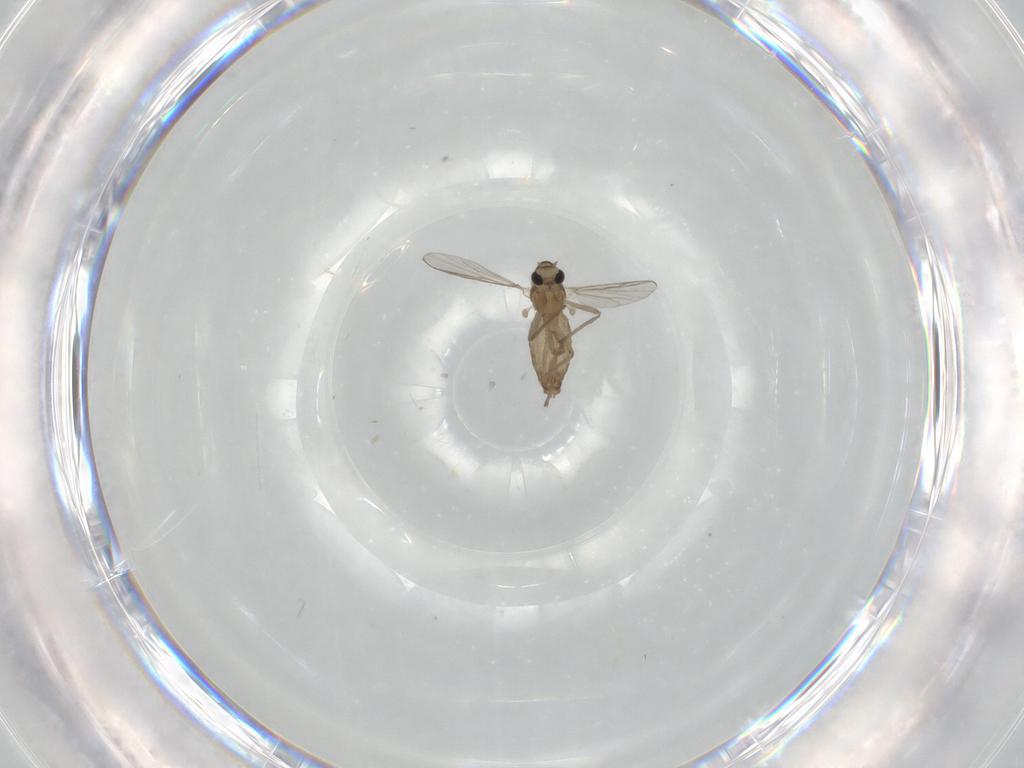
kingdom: Animalia
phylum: Arthropoda
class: Insecta
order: Diptera
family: Chironomidae
